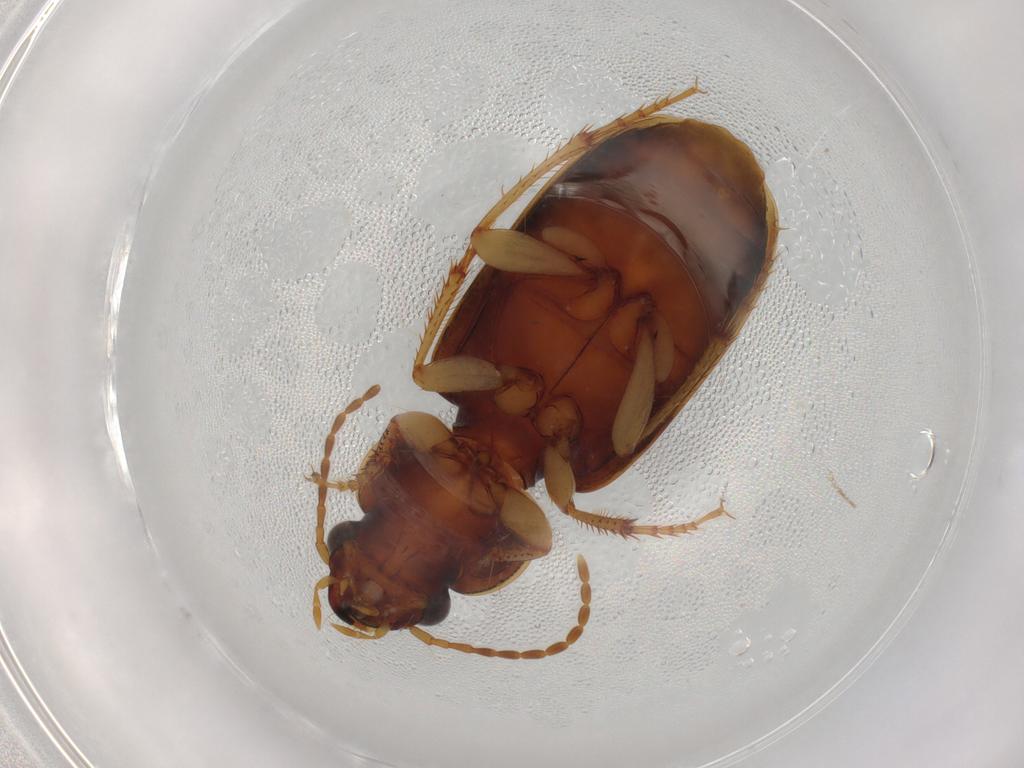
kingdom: Animalia
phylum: Arthropoda
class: Insecta
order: Coleoptera
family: Carabidae
